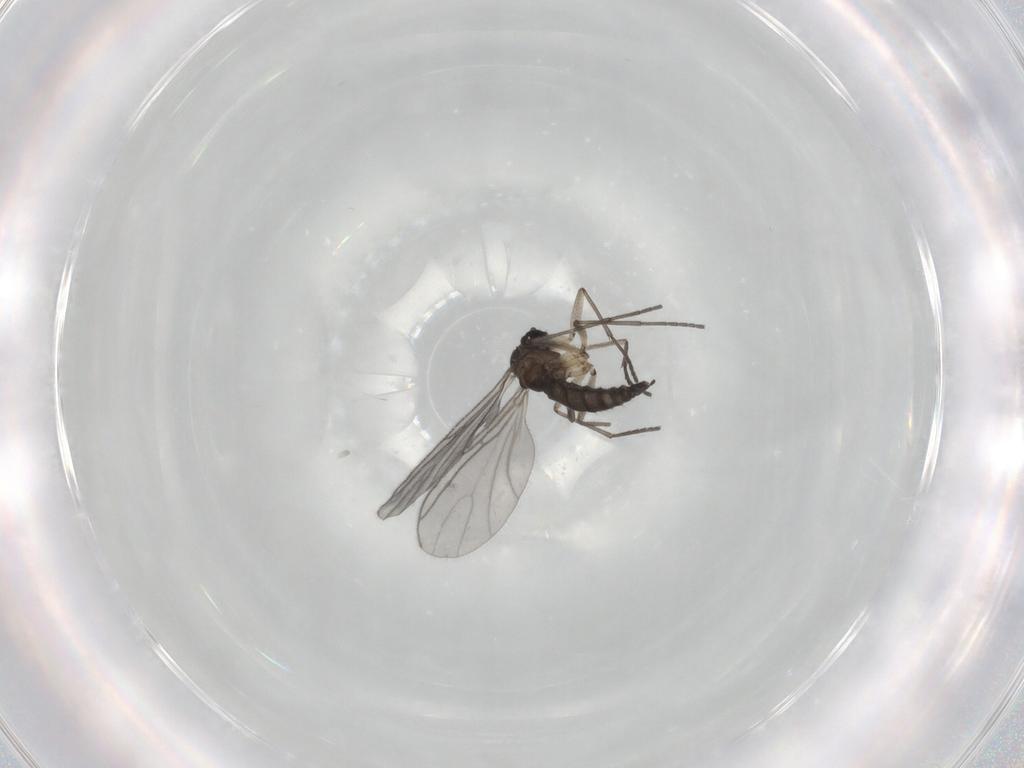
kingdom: Animalia
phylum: Arthropoda
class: Insecta
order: Diptera
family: Sciaridae
